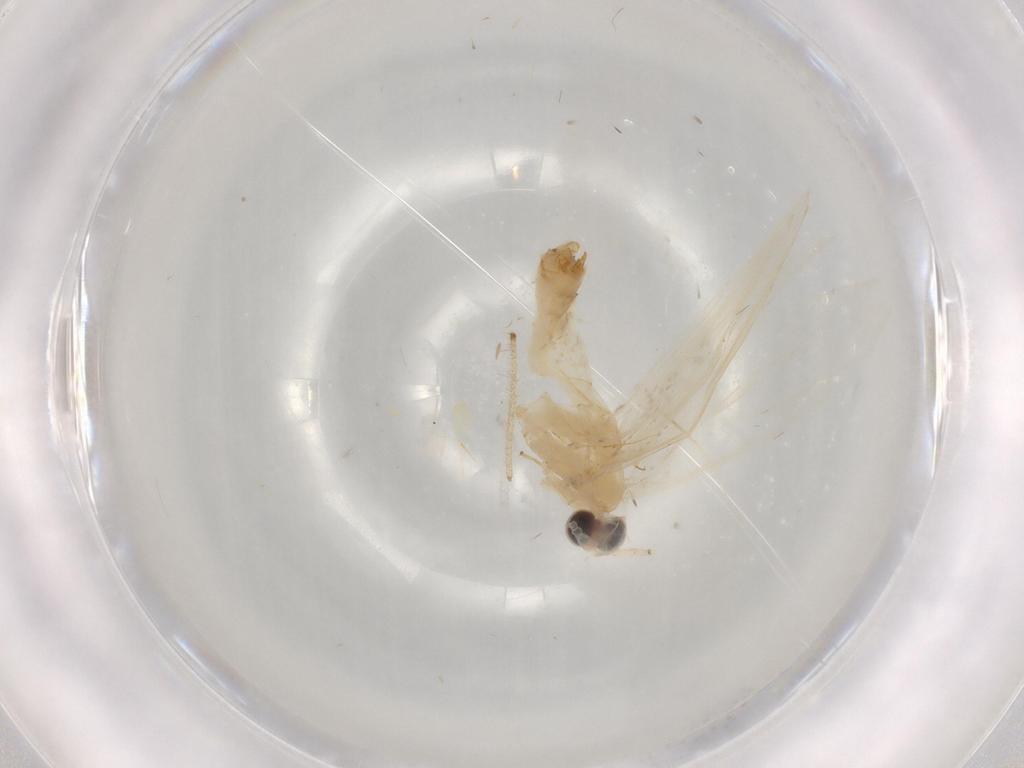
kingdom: Animalia
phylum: Arthropoda
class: Insecta
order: Lepidoptera
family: Nymphalidae
